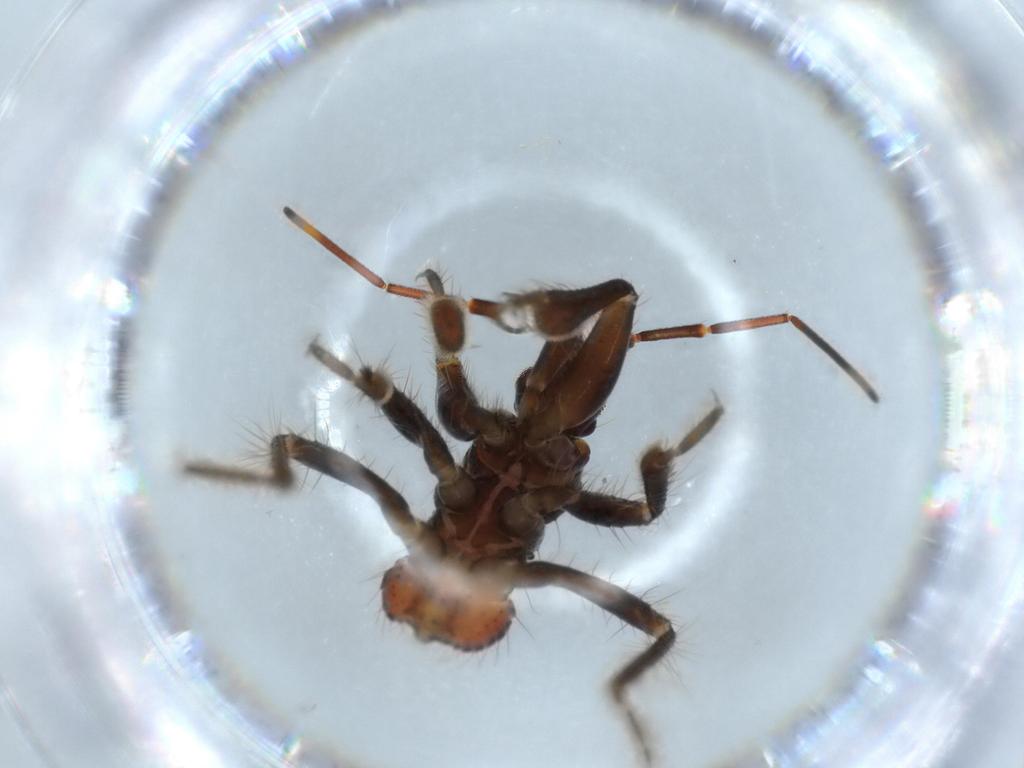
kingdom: Animalia
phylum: Arthropoda
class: Insecta
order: Hemiptera
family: Reduviidae
